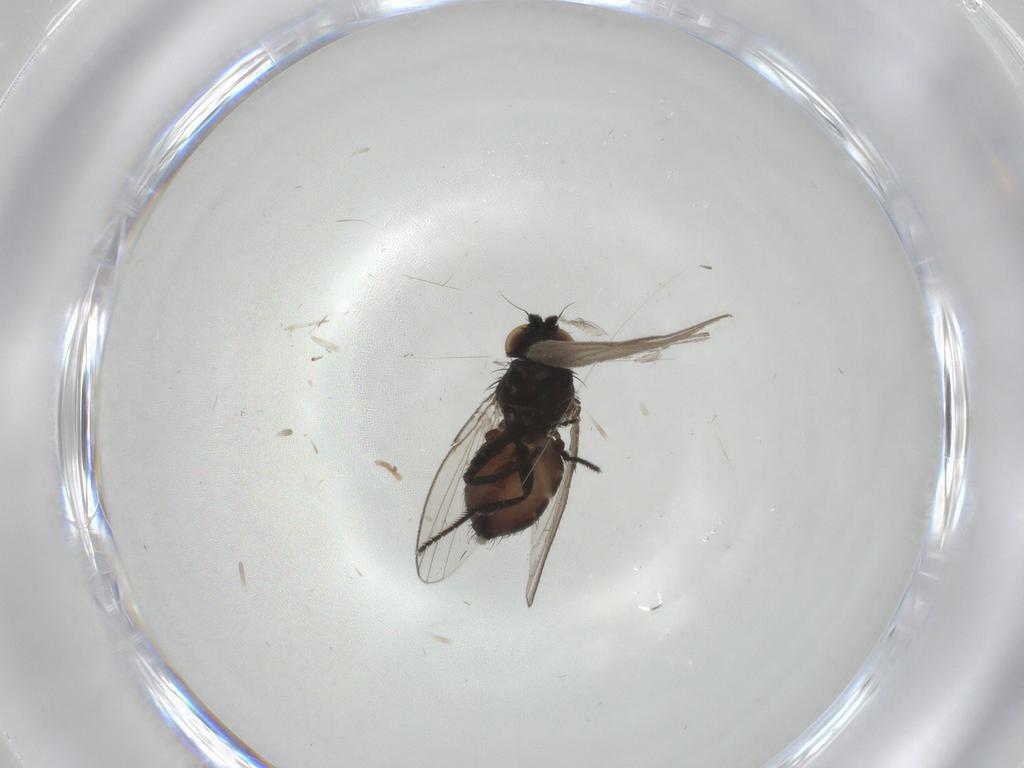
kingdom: Animalia
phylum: Arthropoda
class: Insecta
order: Diptera
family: Milichiidae
